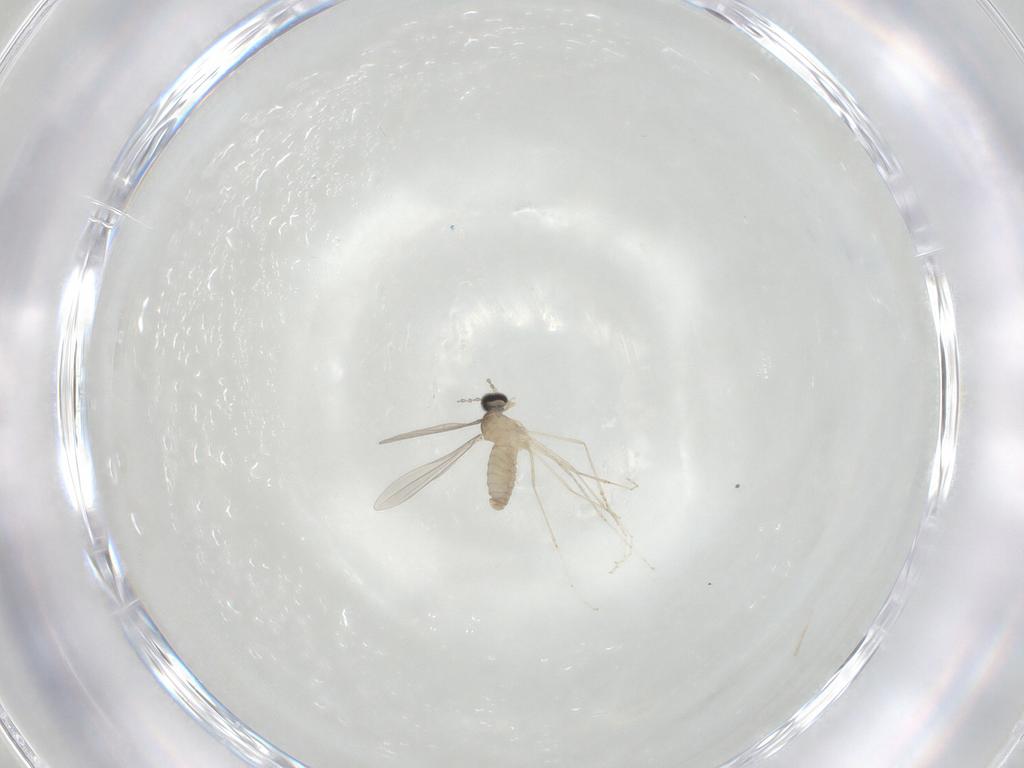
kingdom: Animalia
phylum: Arthropoda
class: Insecta
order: Diptera
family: Cecidomyiidae
